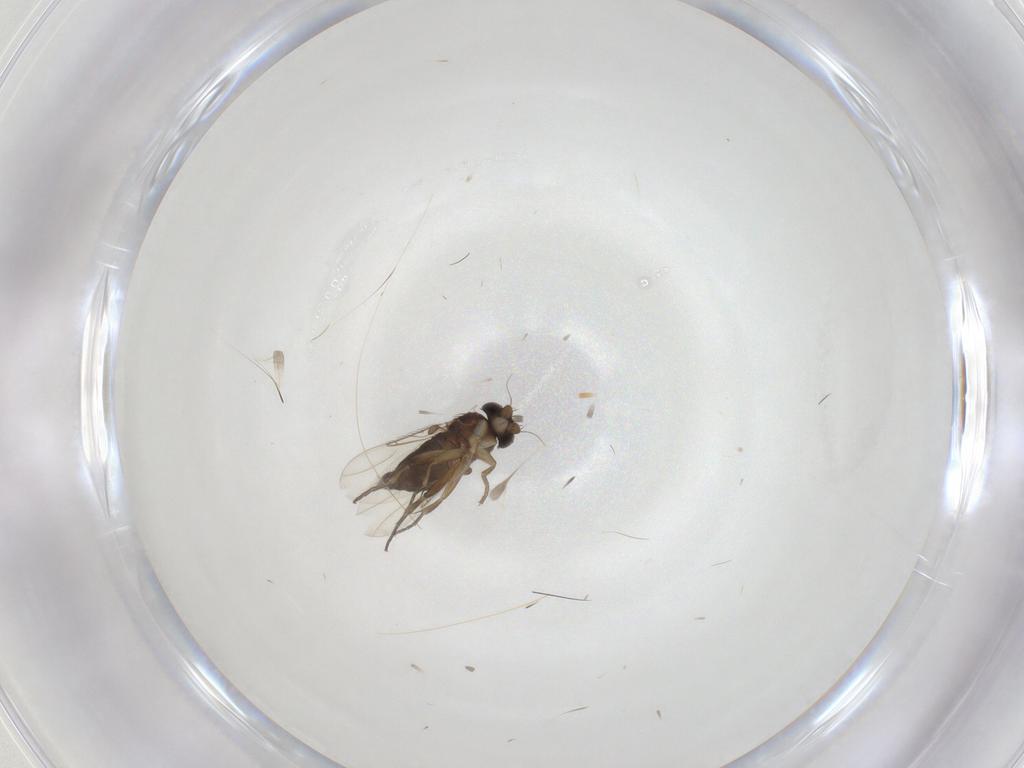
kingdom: Animalia
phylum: Arthropoda
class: Insecta
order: Diptera
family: Phoridae
